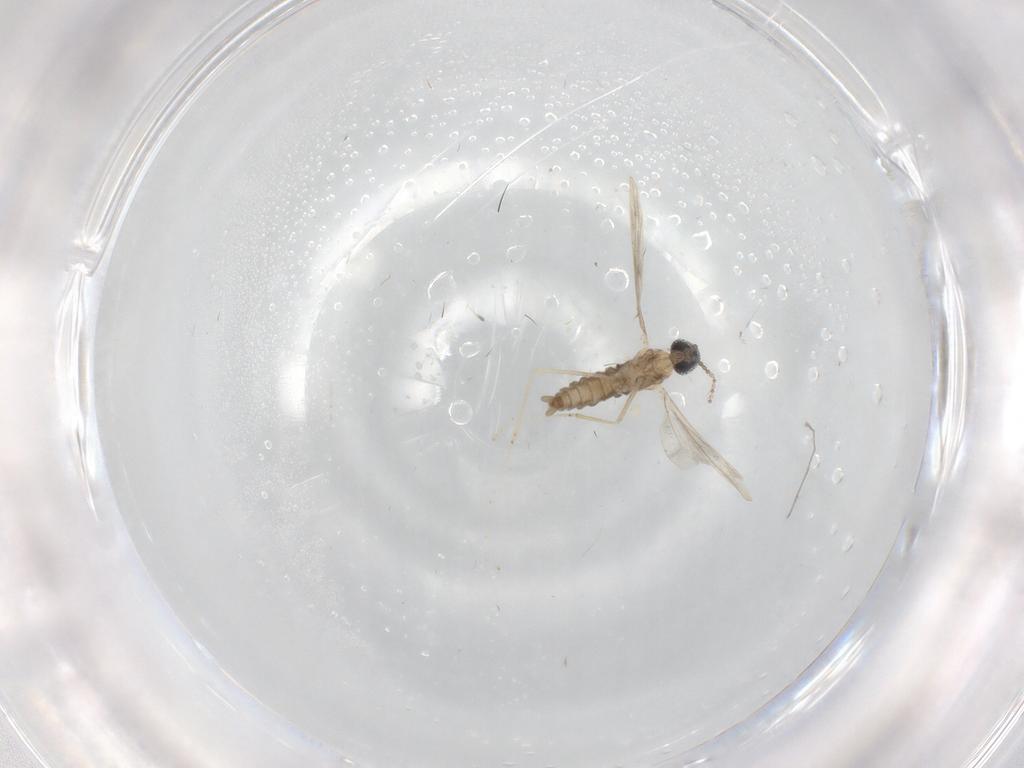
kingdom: Animalia
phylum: Arthropoda
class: Insecta
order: Diptera
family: Chironomidae
